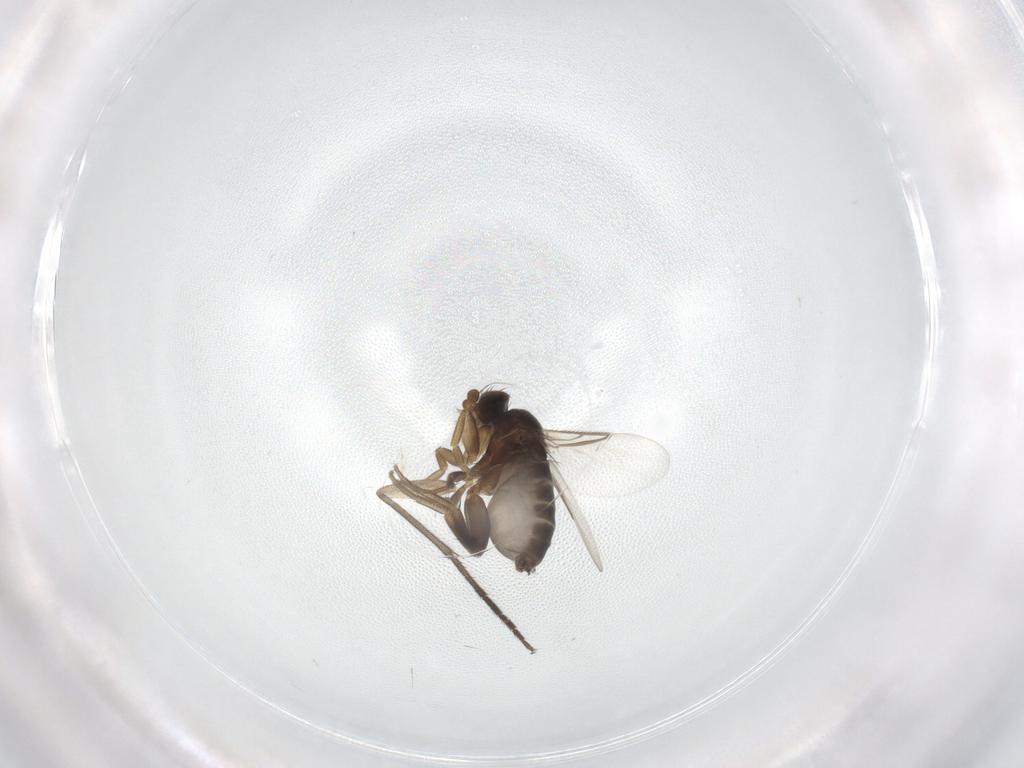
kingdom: Animalia
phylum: Arthropoda
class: Insecta
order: Diptera
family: Phoridae
